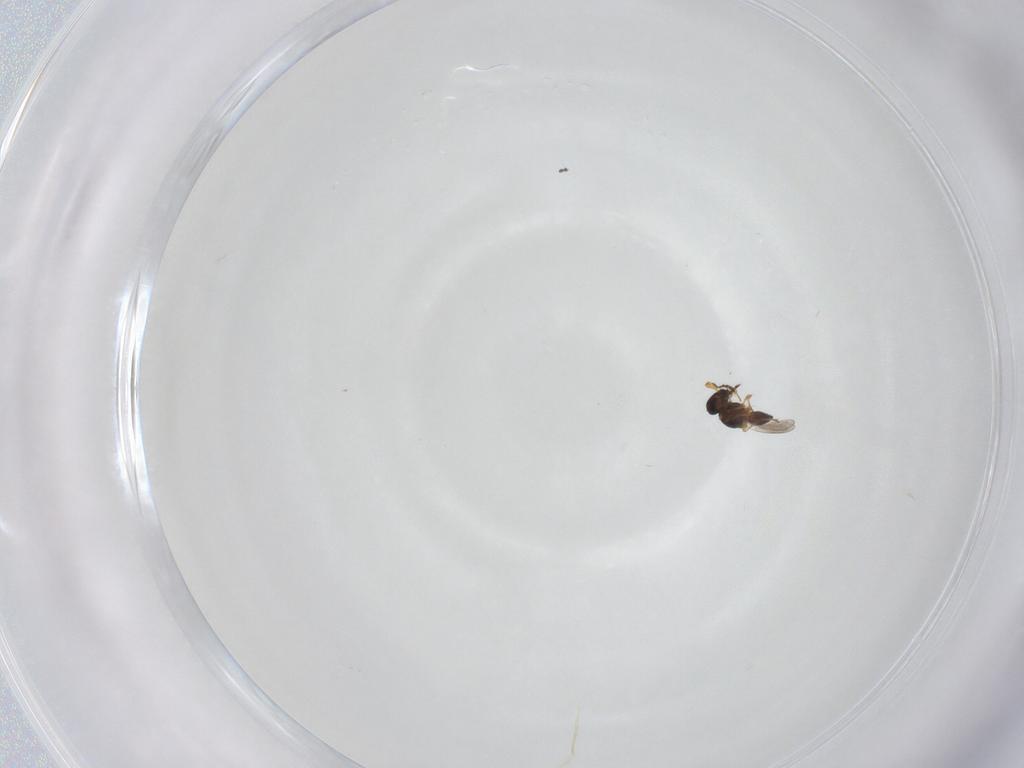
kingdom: Animalia
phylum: Arthropoda
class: Insecta
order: Hymenoptera
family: Platygastridae
